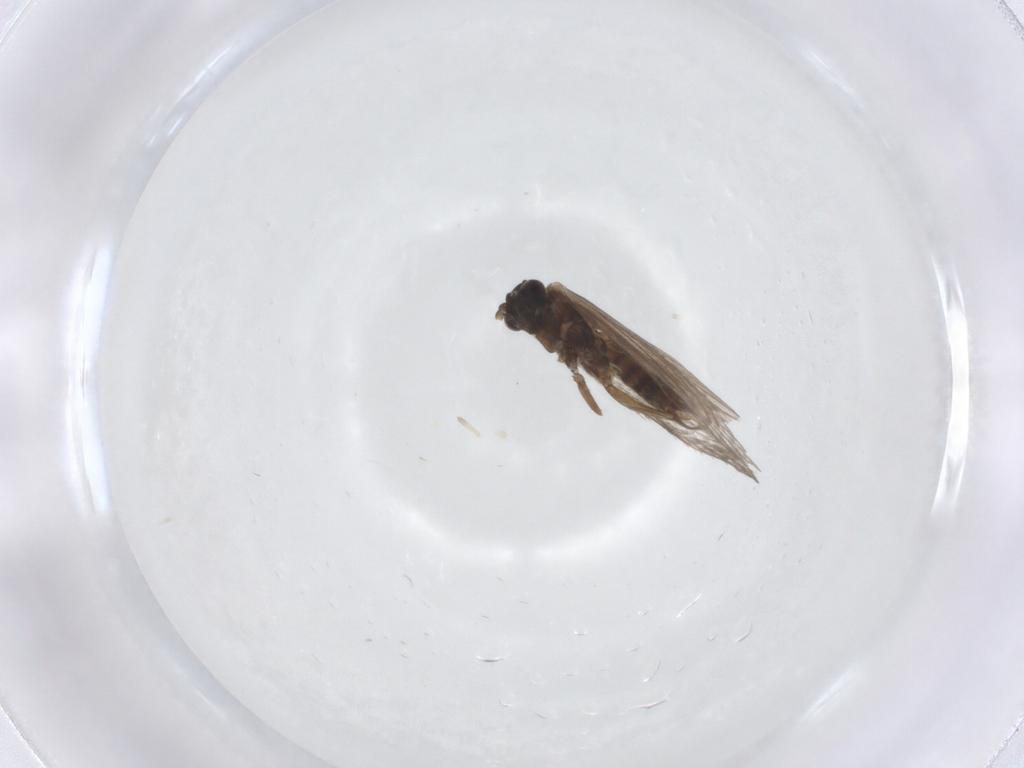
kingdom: Animalia
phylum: Arthropoda
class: Insecta
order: Lepidoptera
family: Micropterigidae
